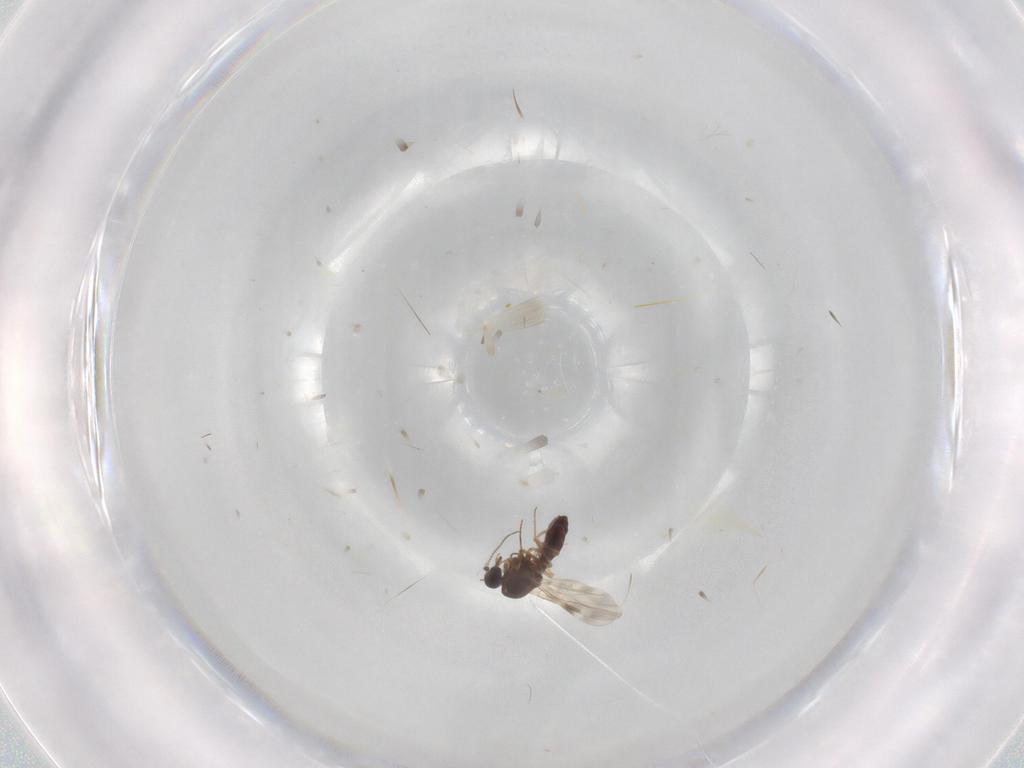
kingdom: Animalia
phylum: Arthropoda
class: Insecta
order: Diptera
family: Ceratopogonidae
